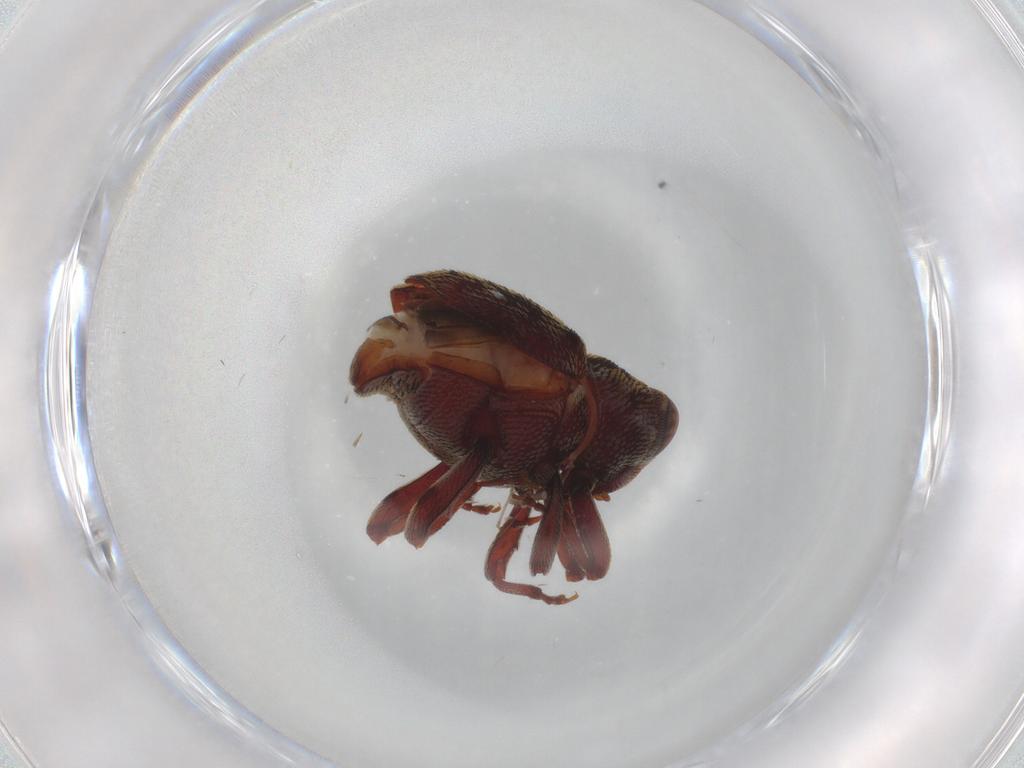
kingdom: Animalia
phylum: Arthropoda
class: Insecta
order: Coleoptera
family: Curculionidae
